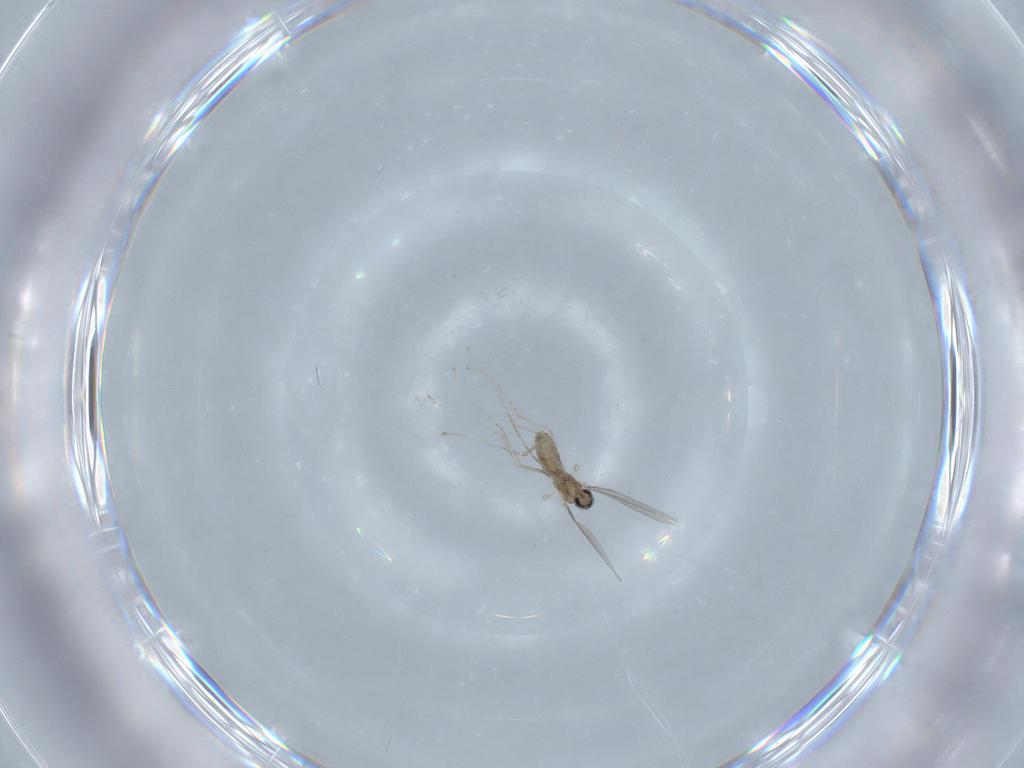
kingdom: Animalia
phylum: Arthropoda
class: Insecta
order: Diptera
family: Cecidomyiidae
